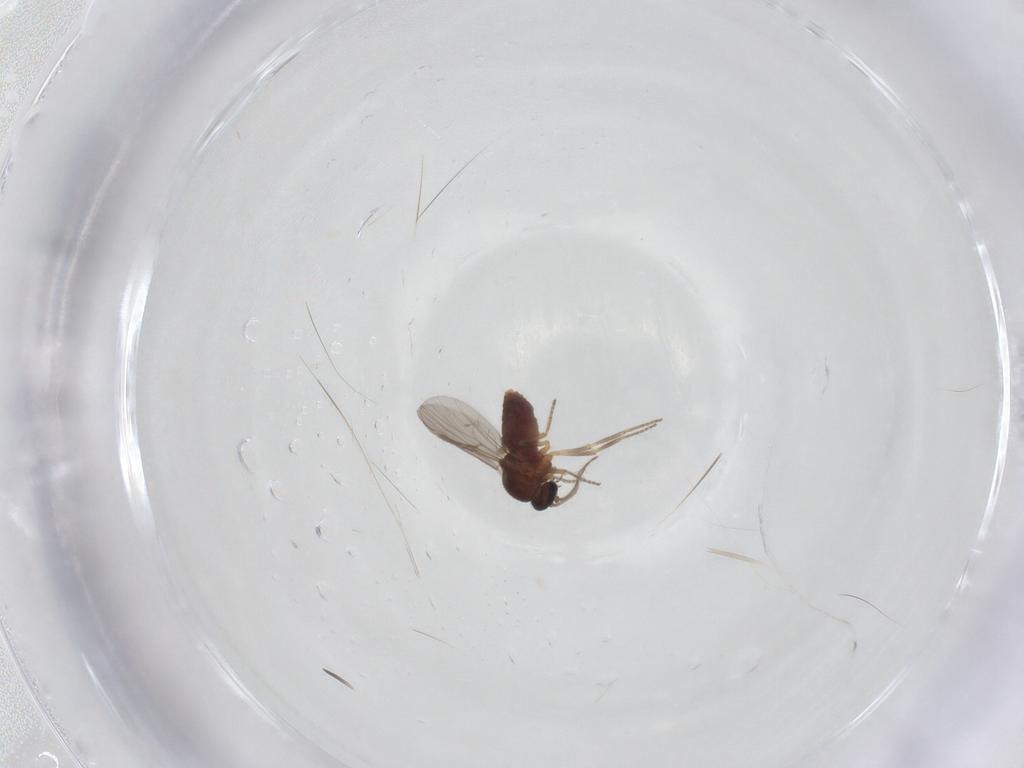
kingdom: Animalia
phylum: Arthropoda
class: Insecta
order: Diptera
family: Ceratopogonidae
